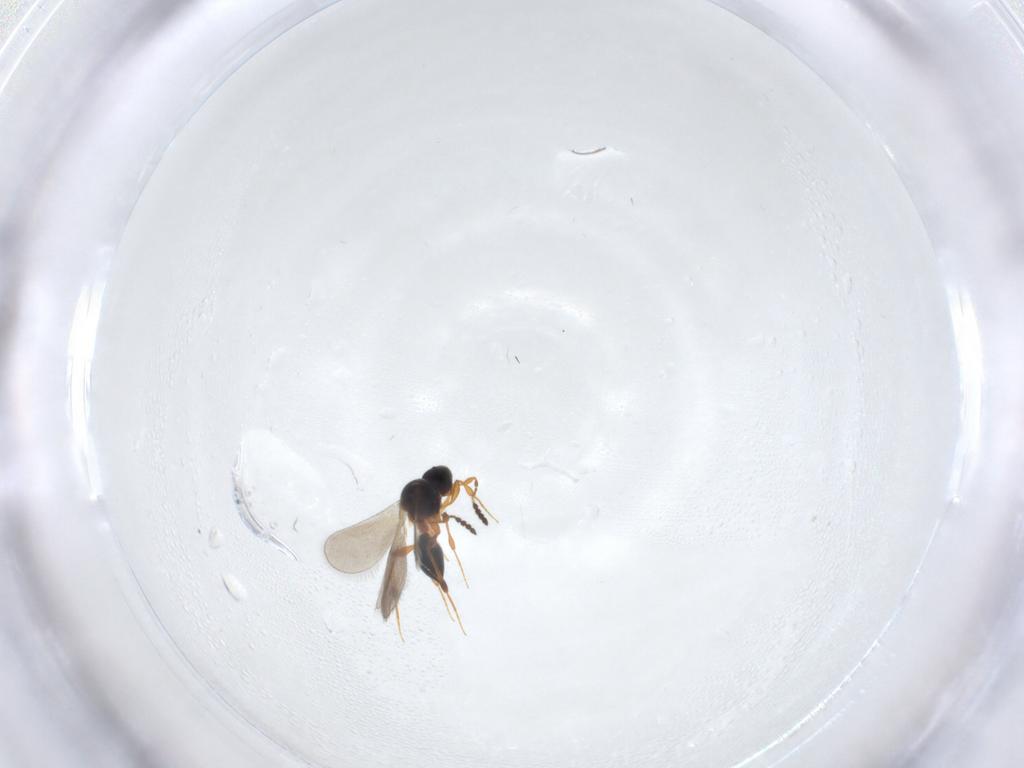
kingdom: Animalia
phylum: Arthropoda
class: Insecta
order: Hymenoptera
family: Platygastridae
